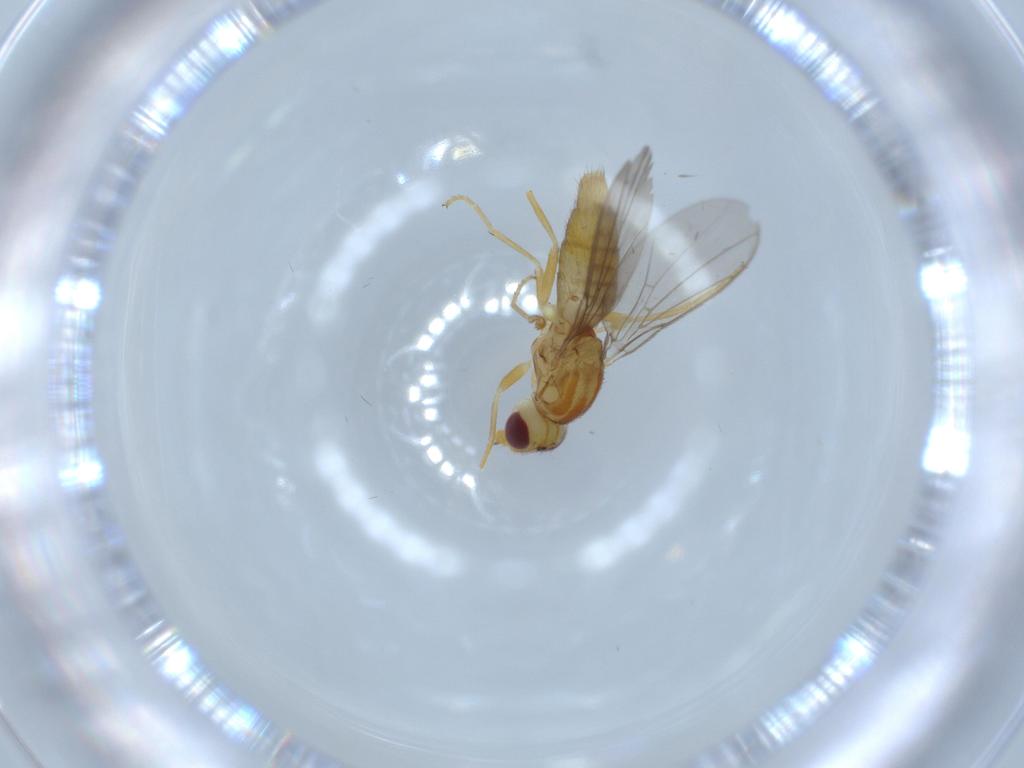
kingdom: Animalia
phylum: Arthropoda
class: Insecta
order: Diptera
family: Chloropidae
